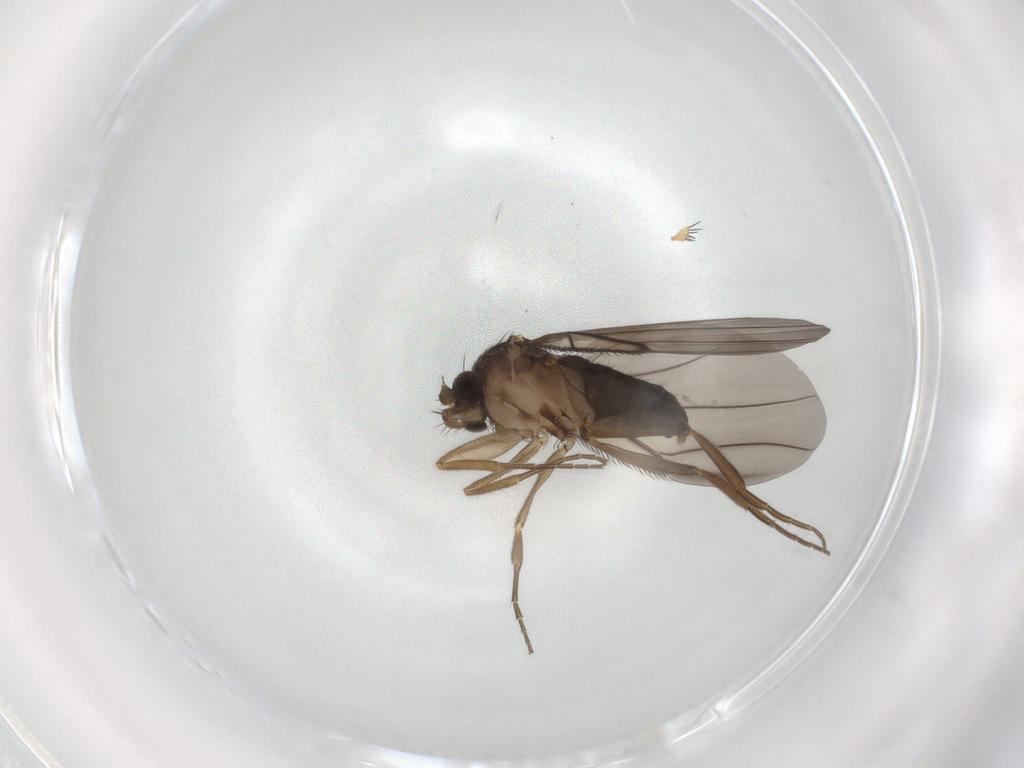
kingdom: Animalia
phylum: Arthropoda
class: Insecta
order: Diptera
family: Phoridae
